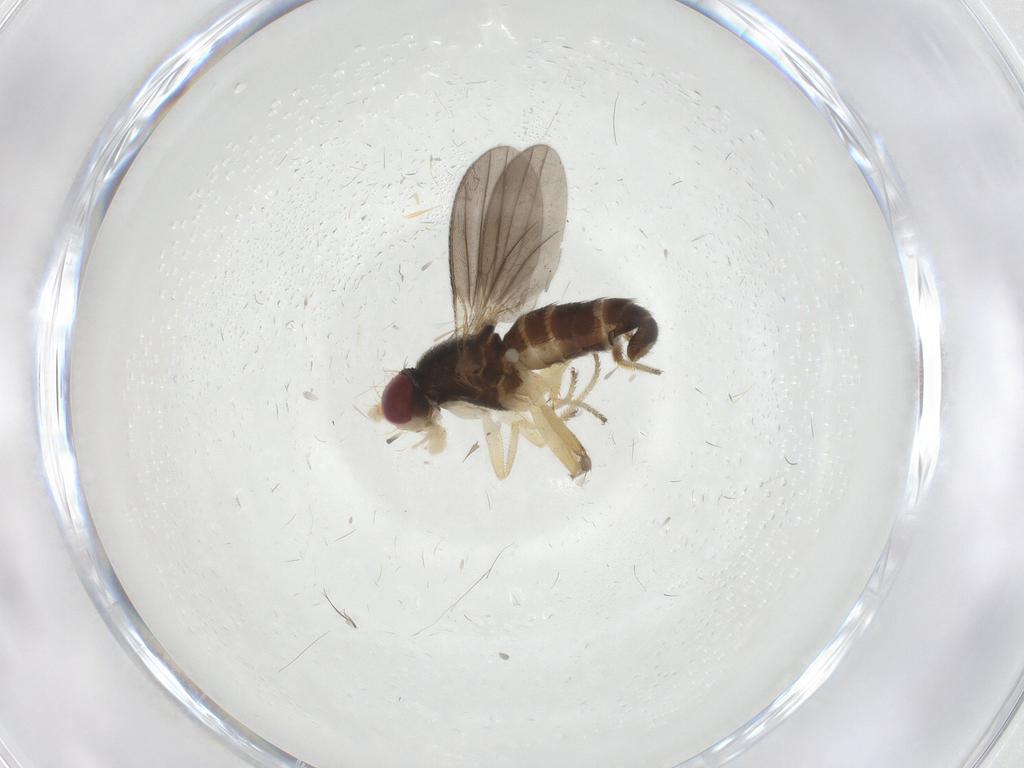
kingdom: Animalia
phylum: Arthropoda
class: Insecta
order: Diptera
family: Clusiidae
